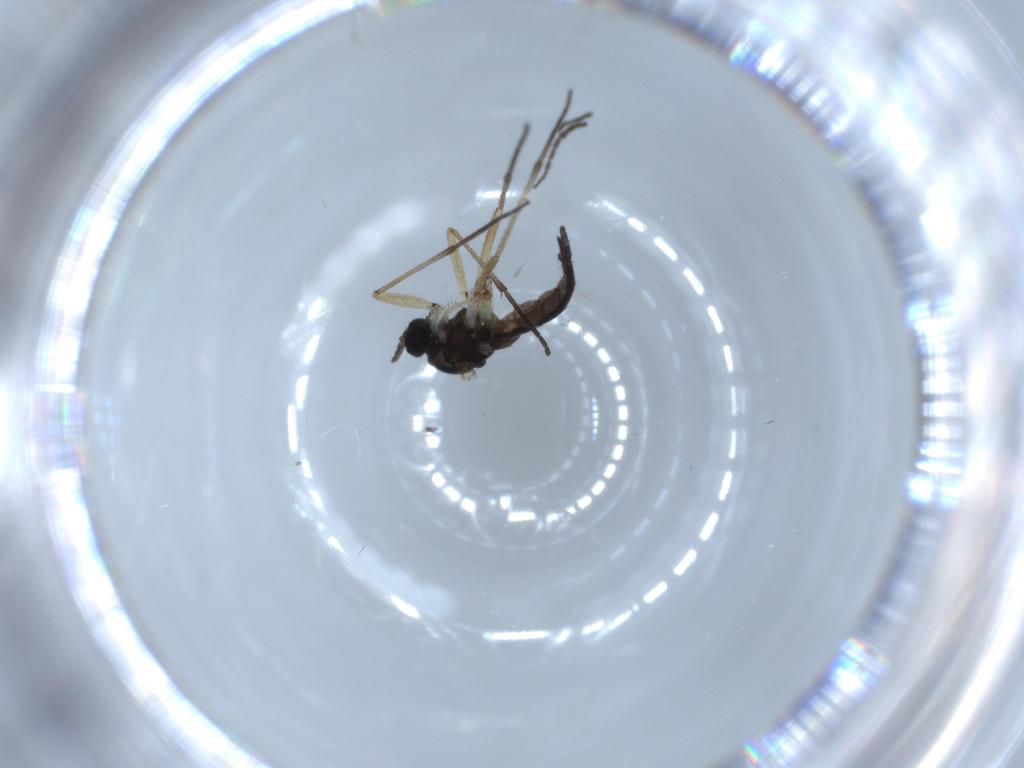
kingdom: Animalia
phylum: Arthropoda
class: Insecta
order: Diptera
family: Sciaridae
